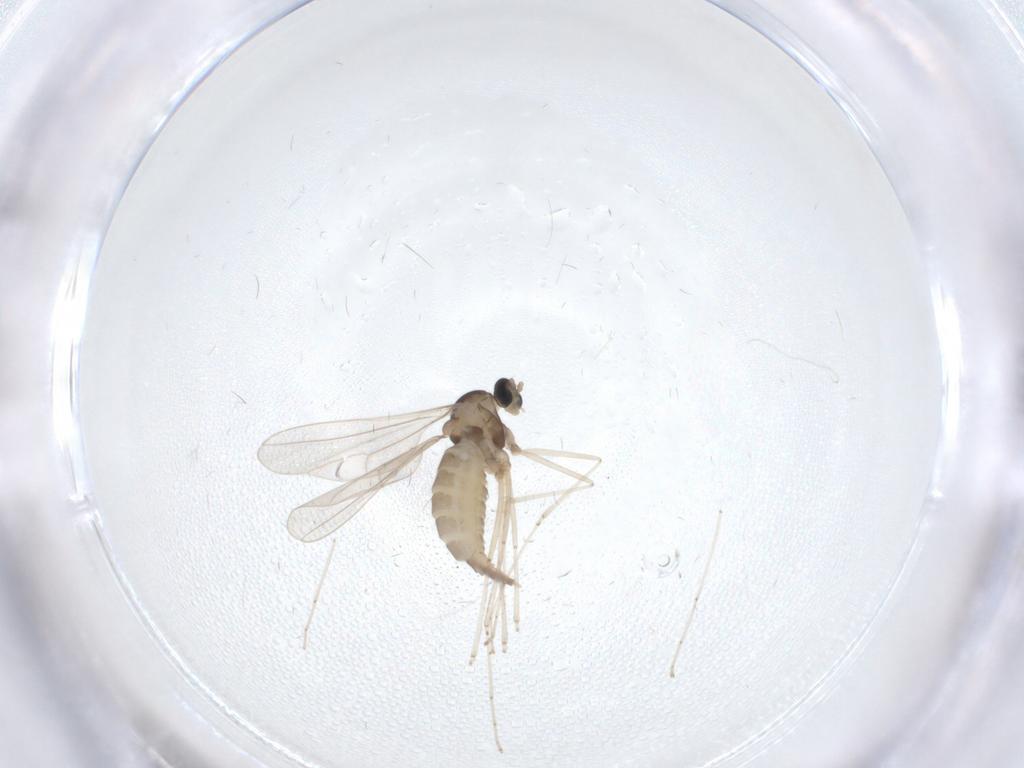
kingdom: Animalia
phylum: Arthropoda
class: Insecta
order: Diptera
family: Cecidomyiidae
